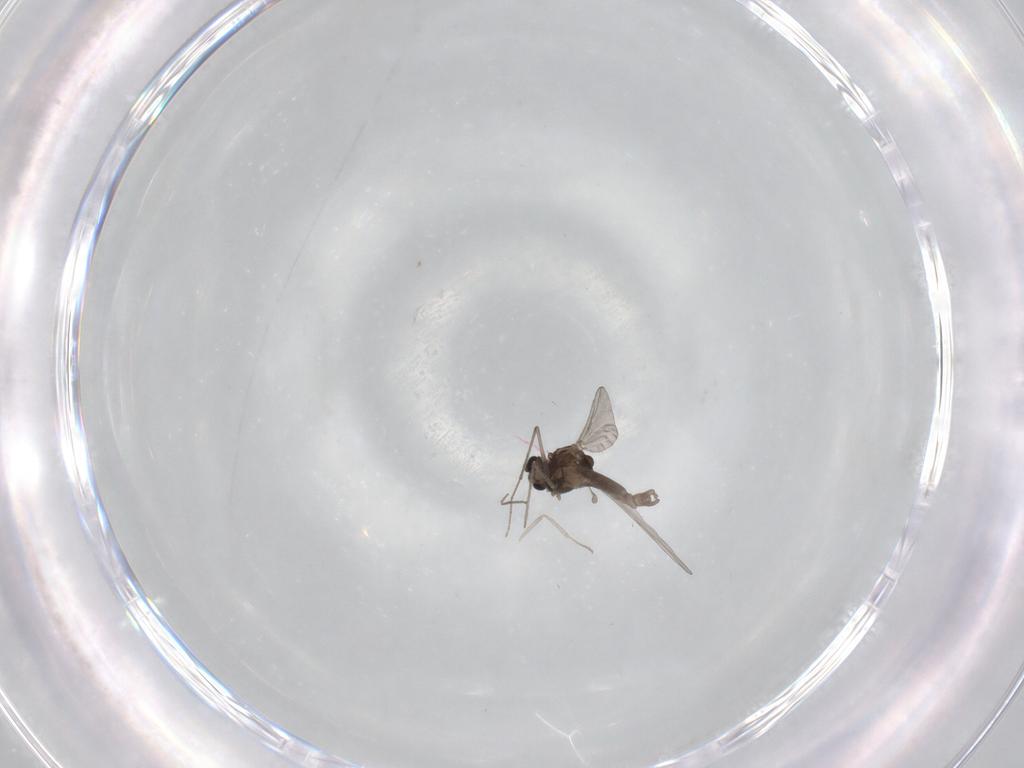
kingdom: Animalia
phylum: Arthropoda
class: Insecta
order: Diptera
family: Chironomidae
